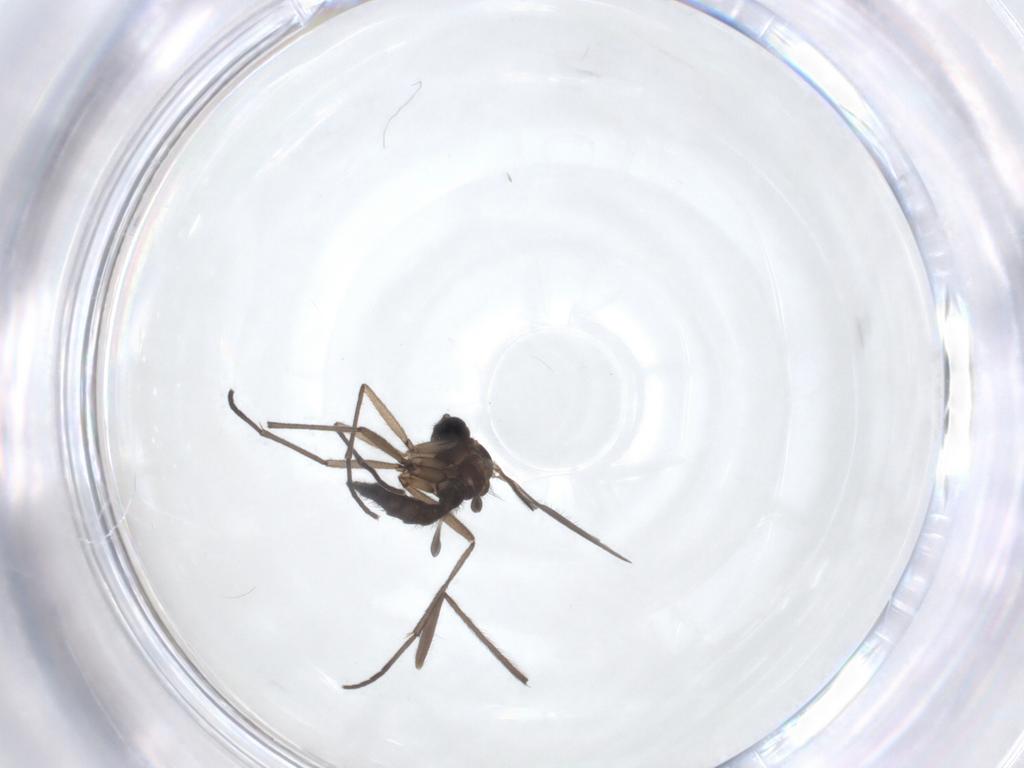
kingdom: Animalia
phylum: Arthropoda
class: Insecta
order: Diptera
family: Sciaridae
